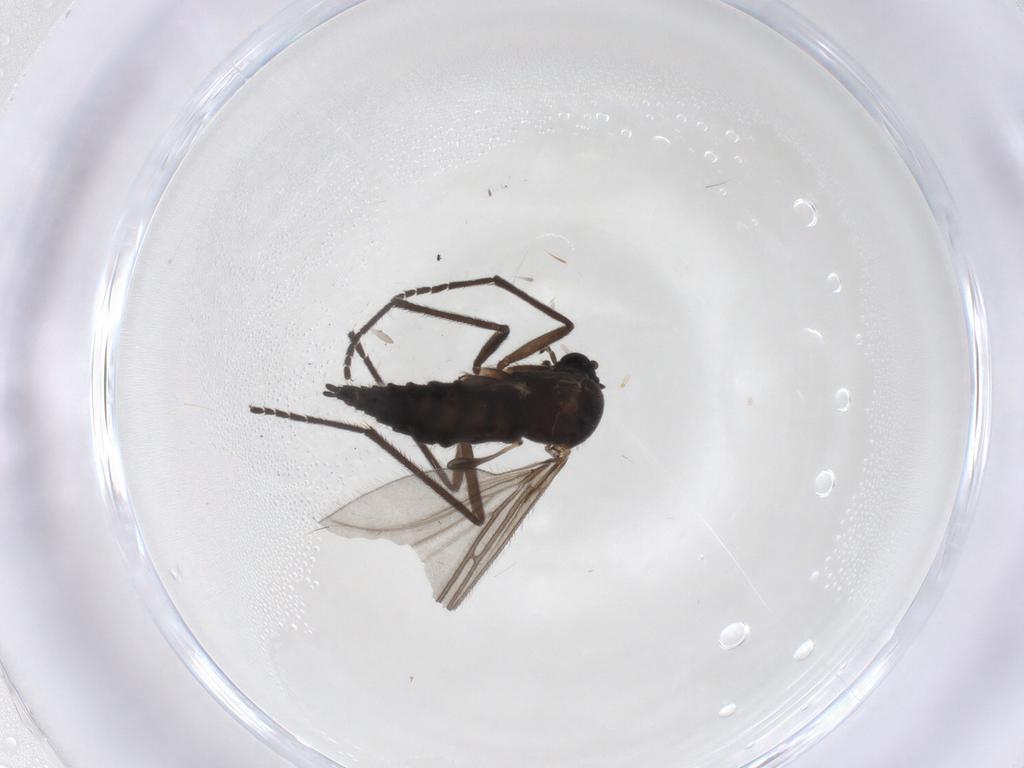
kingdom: Animalia
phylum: Arthropoda
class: Insecta
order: Diptera
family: Sciaridae
